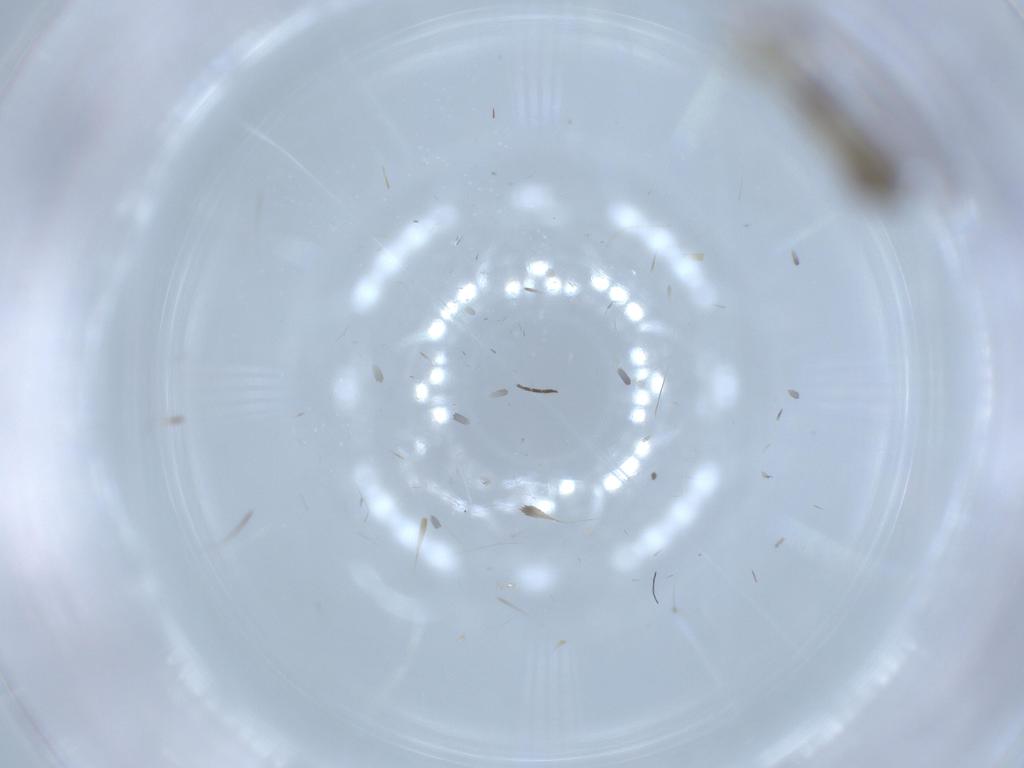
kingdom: Animalia
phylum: Arthropoda
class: Insecta
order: Diptera
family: Sciaridae
